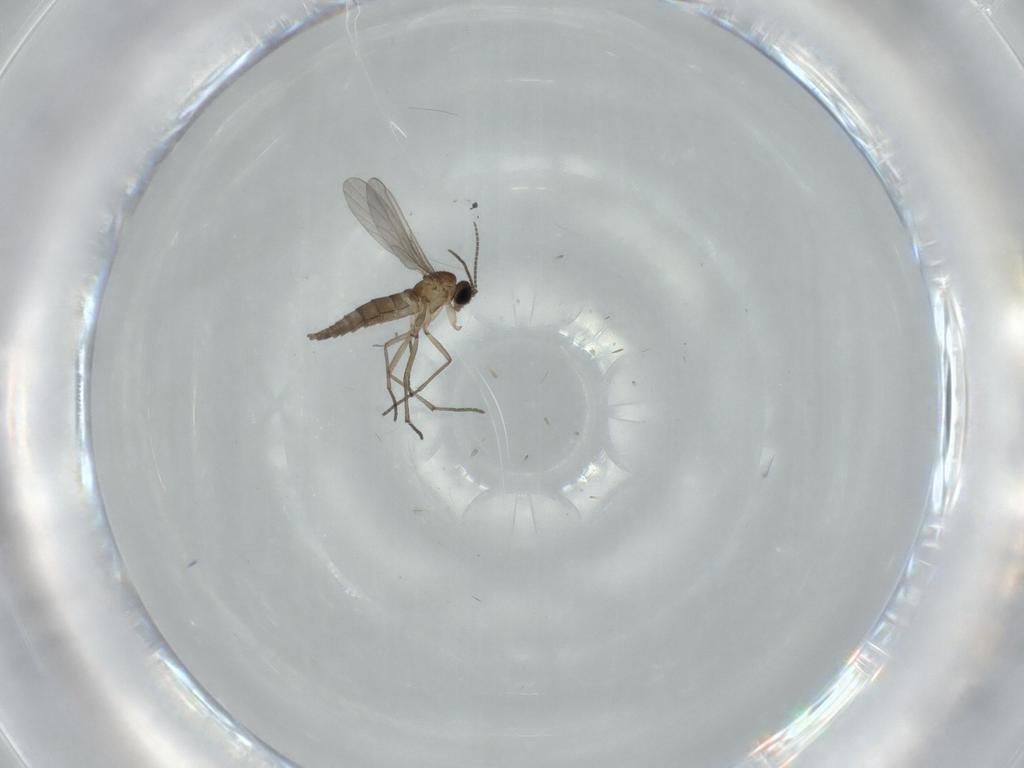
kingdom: Animalia
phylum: Arthropoda
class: Insecta
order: Diptera
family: Sciaridae
